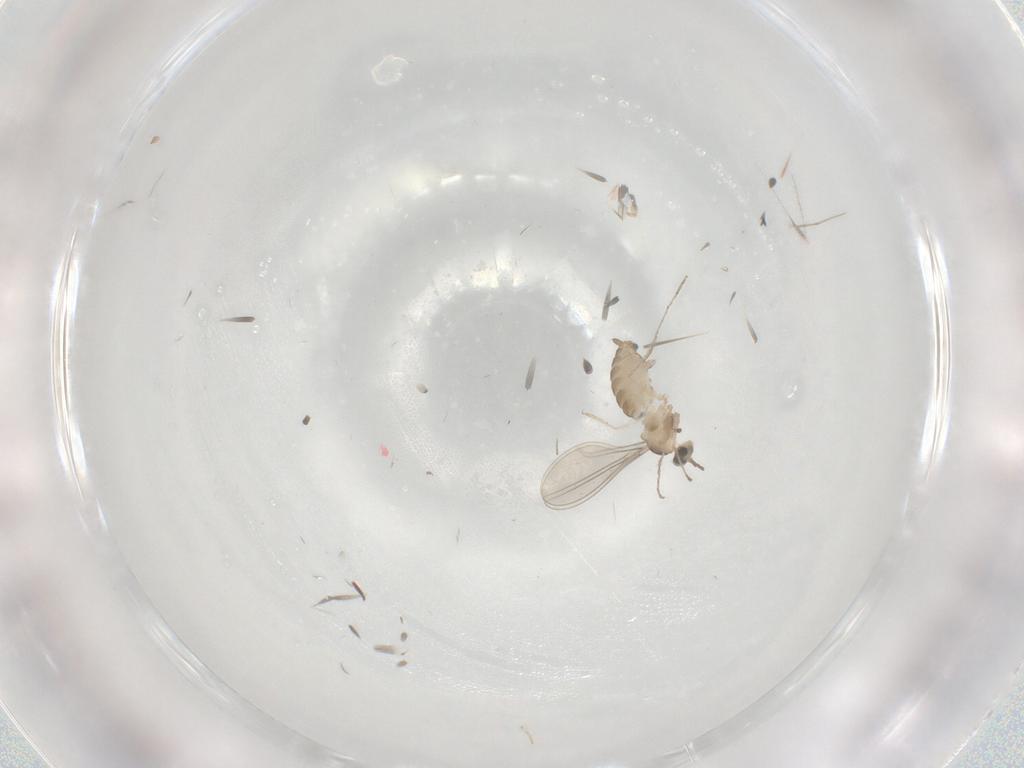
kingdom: Animalia
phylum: Arthropoda
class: Insecta
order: Diptera
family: Cecidomyiidae
